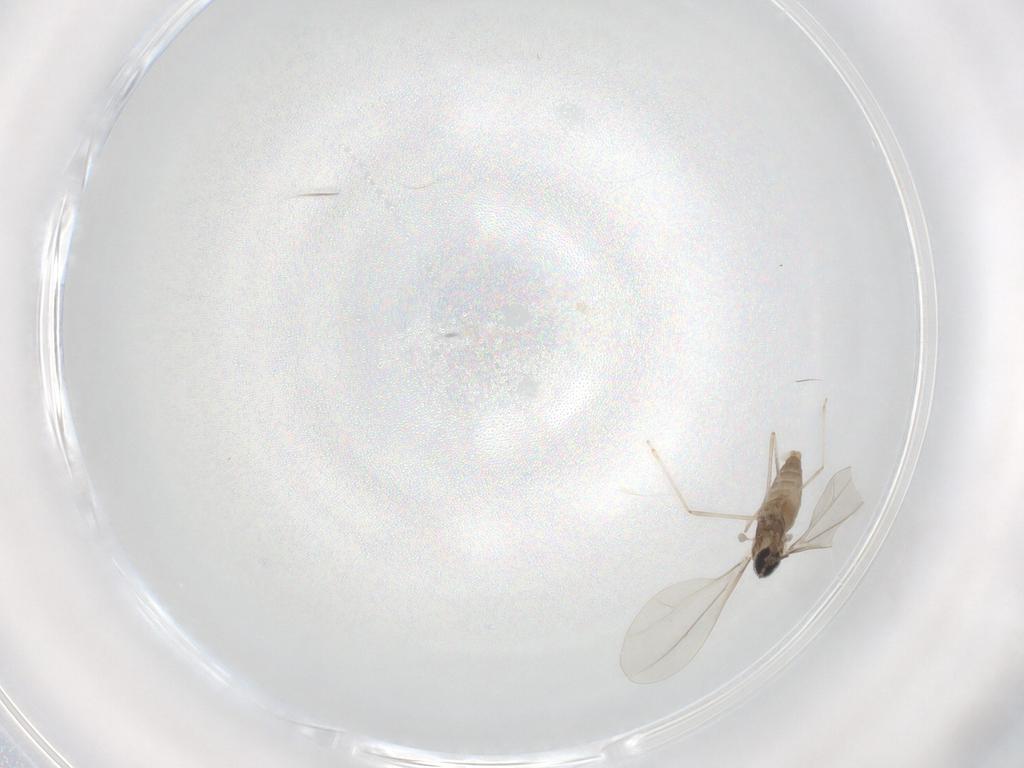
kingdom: Animalia
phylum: Arthropoda
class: Insecta
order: Diptera
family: Cecidomyiidae
